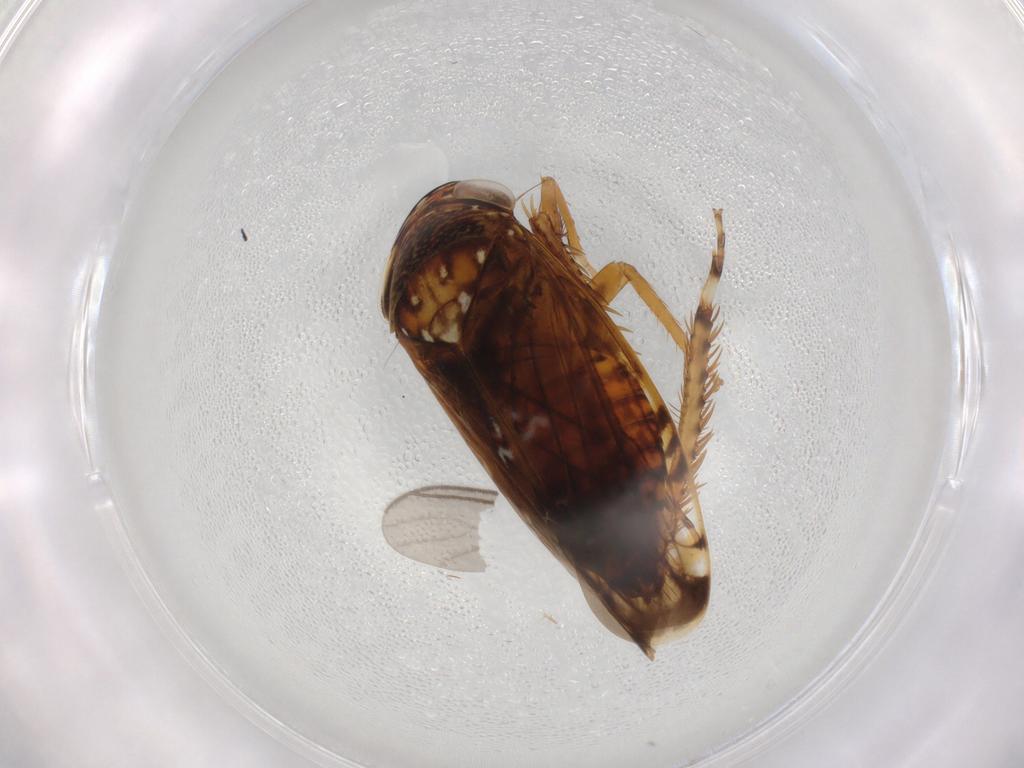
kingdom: Animalia
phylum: Arthropoda
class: Insecta
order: Hemiptera
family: Cicadellidae
